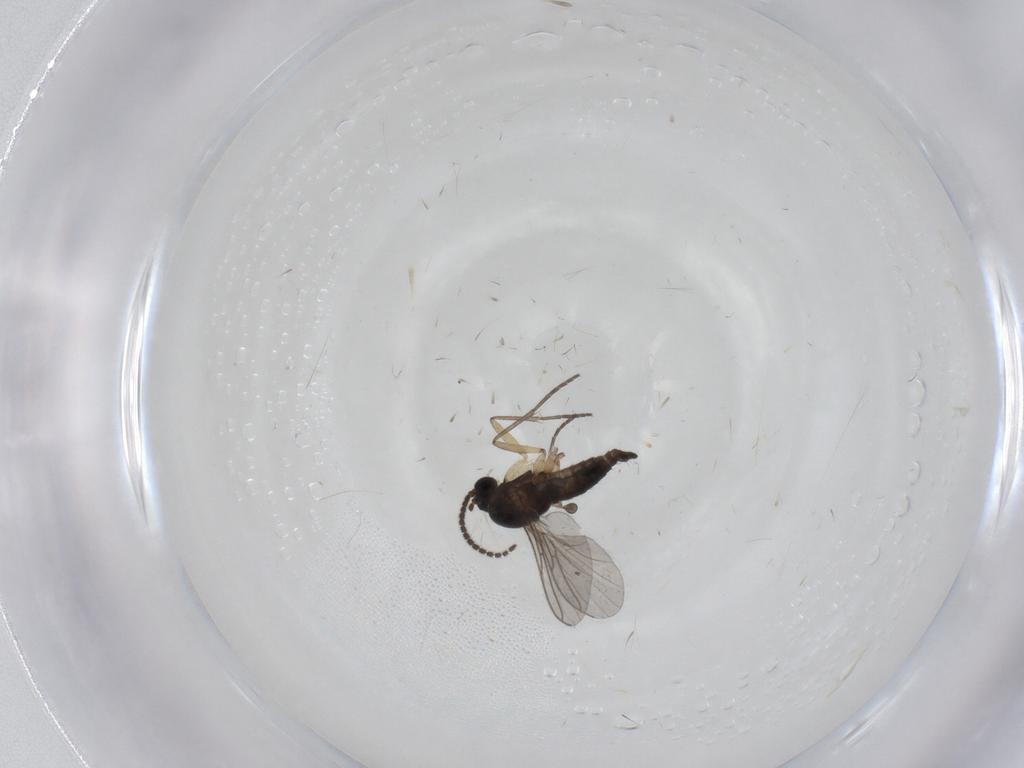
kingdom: Animalia
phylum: Arthropoda
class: Insecta
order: Diptera
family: Sciaridae
